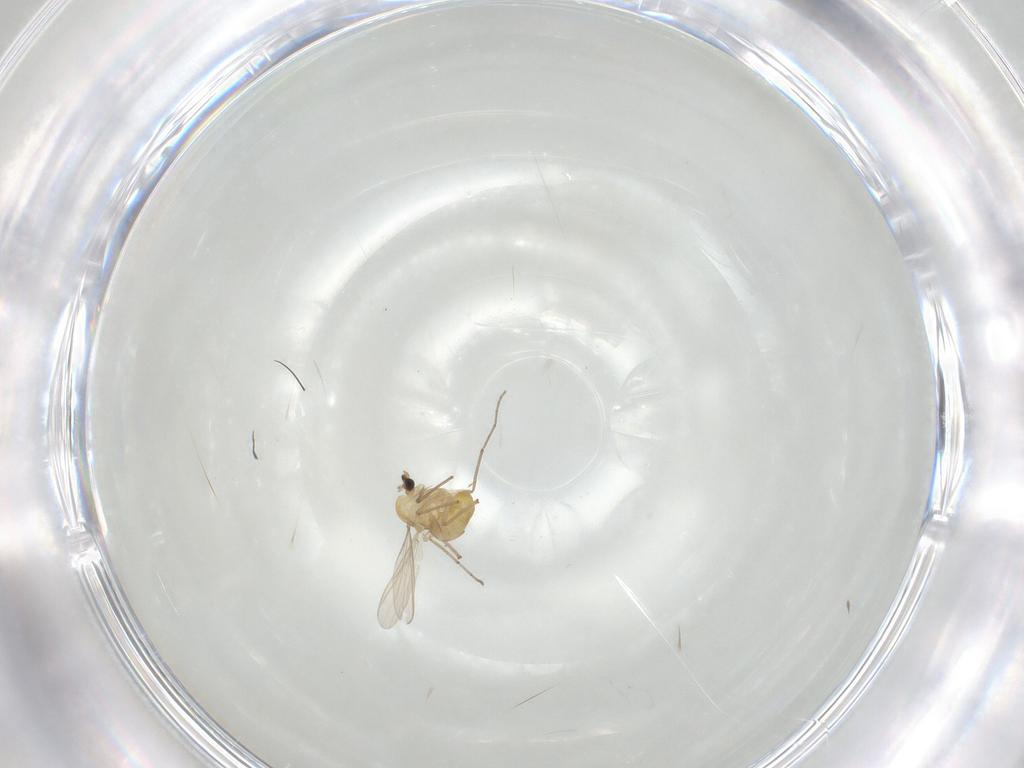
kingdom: Animalia
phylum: Arthropoda
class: Insecta
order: Diptera
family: Chironomidae
